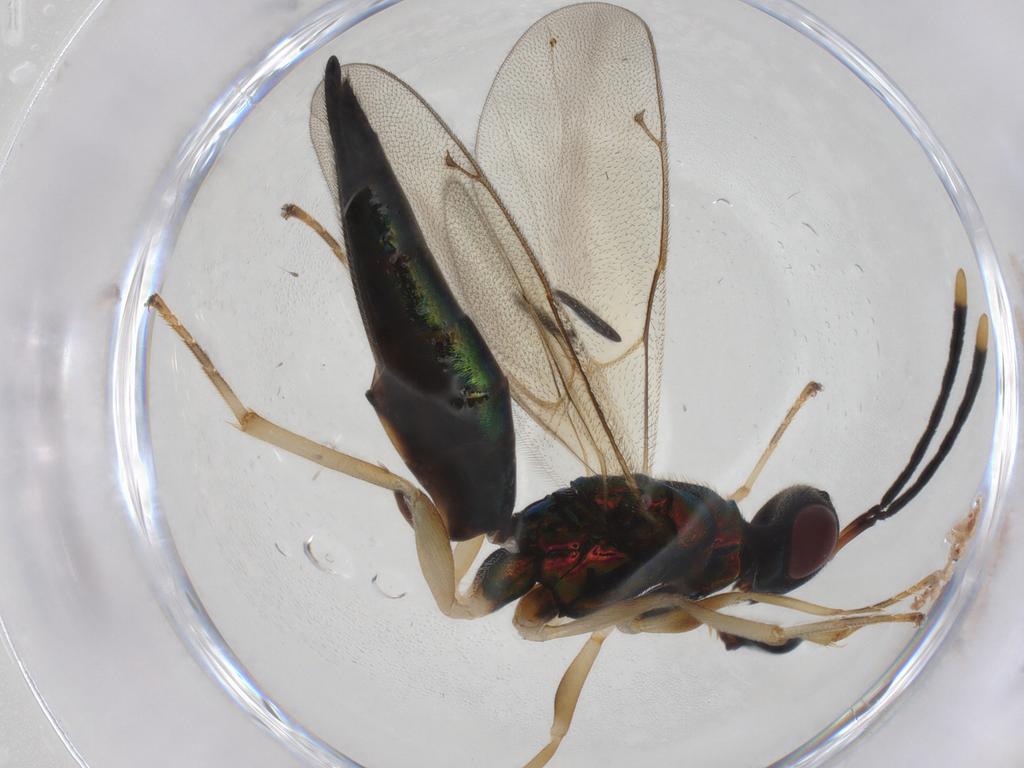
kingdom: Animalia
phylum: Arthropoda
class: Insecta
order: Hymenoptera
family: Pteromalidae
